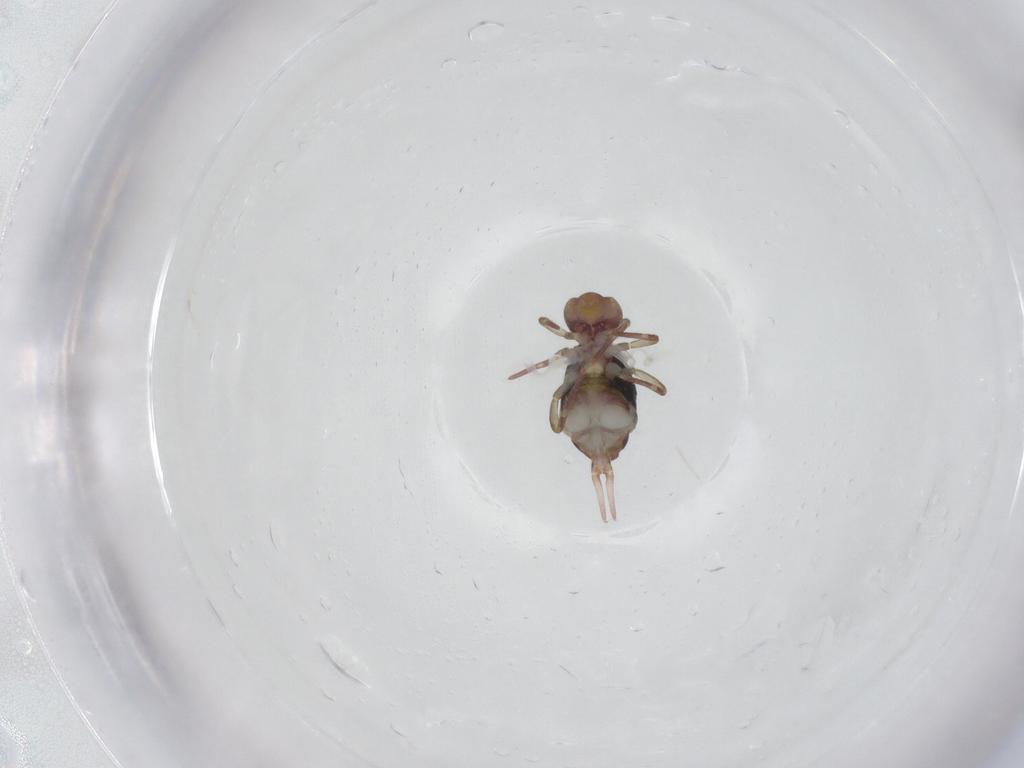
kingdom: Animalia
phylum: Arthropoda
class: Collembola
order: Symphypleona
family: Dicyrtomidae
